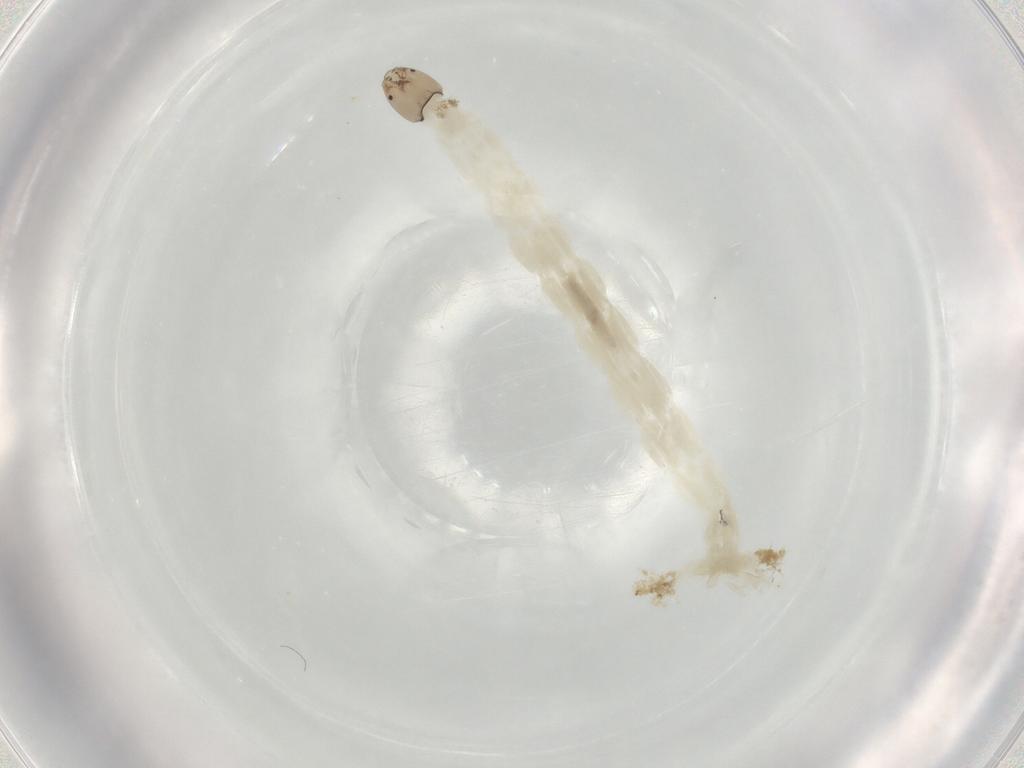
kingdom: Animalia
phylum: Arthropoda
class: Insecta
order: Diptera
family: Chironomidae
